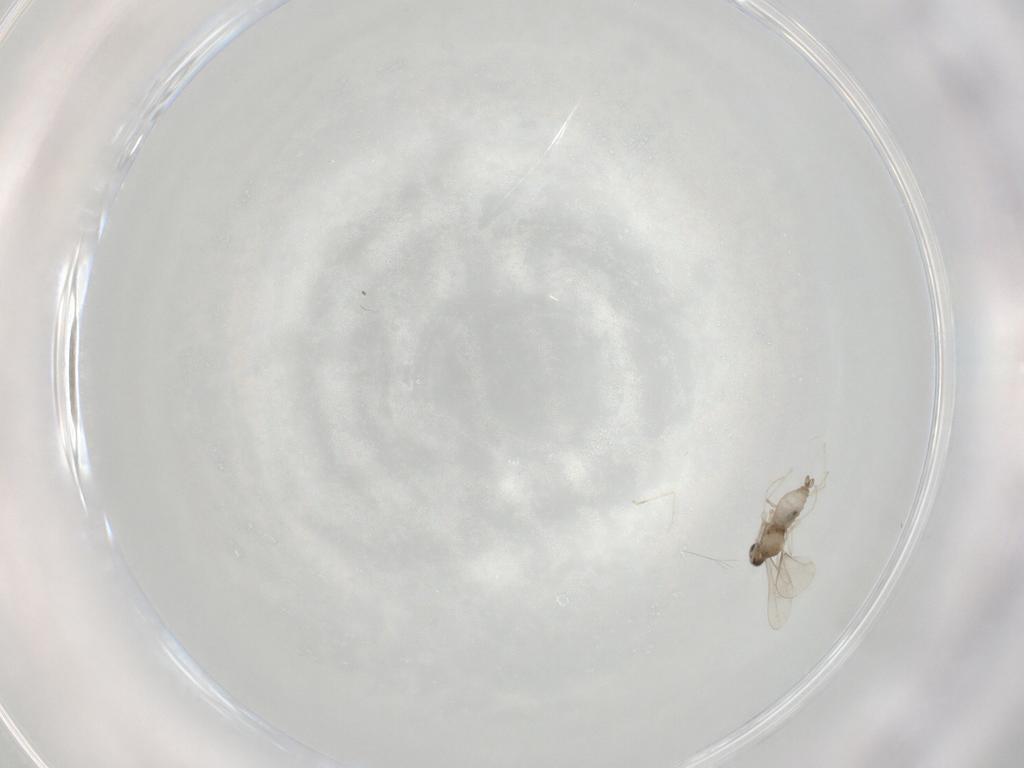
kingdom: Animalia
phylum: Arthropoda
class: Insecta
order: Diptera
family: Cecidomyiidae
